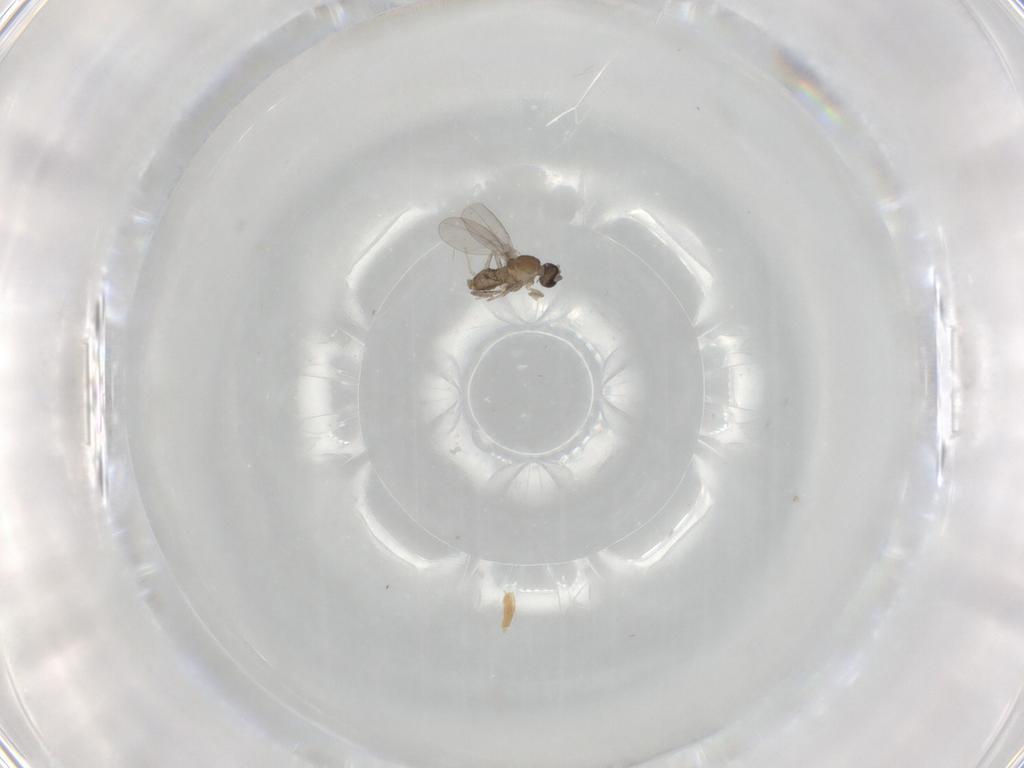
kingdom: Animalia
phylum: Arthropoda
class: Insecta
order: Diptera
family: Cecidomyiidae
